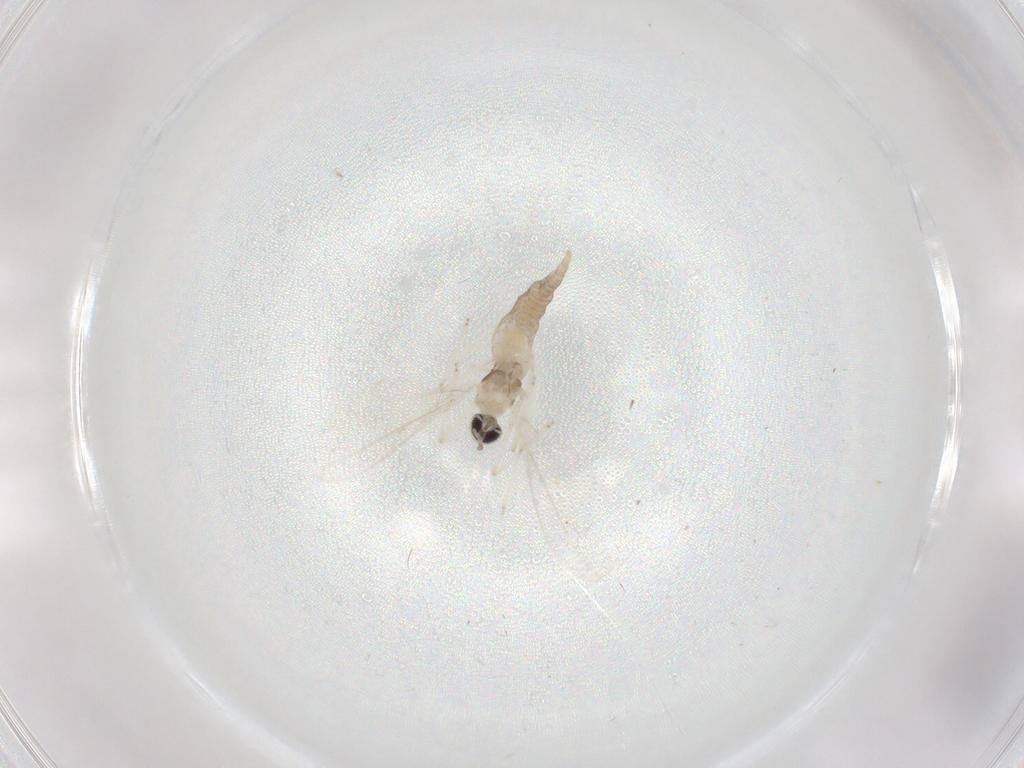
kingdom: Animalia
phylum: Arthropoda
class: Insecta
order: Diptera
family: Cecidomyiidae
